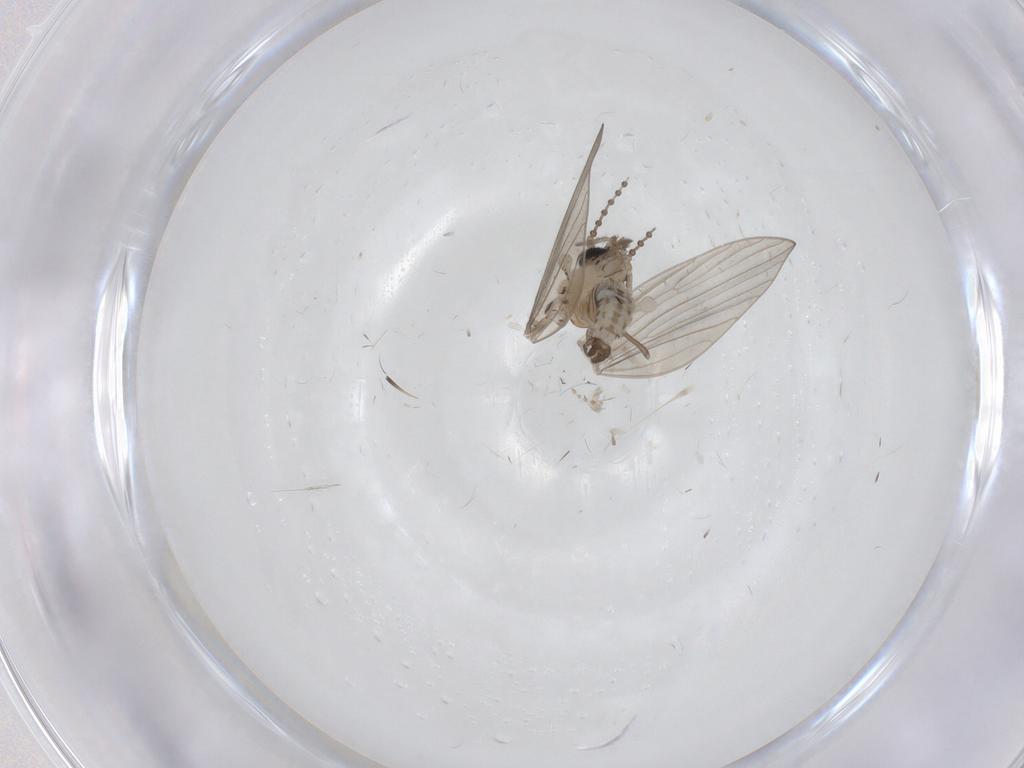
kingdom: Animalia
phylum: Arthropoda
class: Insecta
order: Diptera
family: Psychodidae
